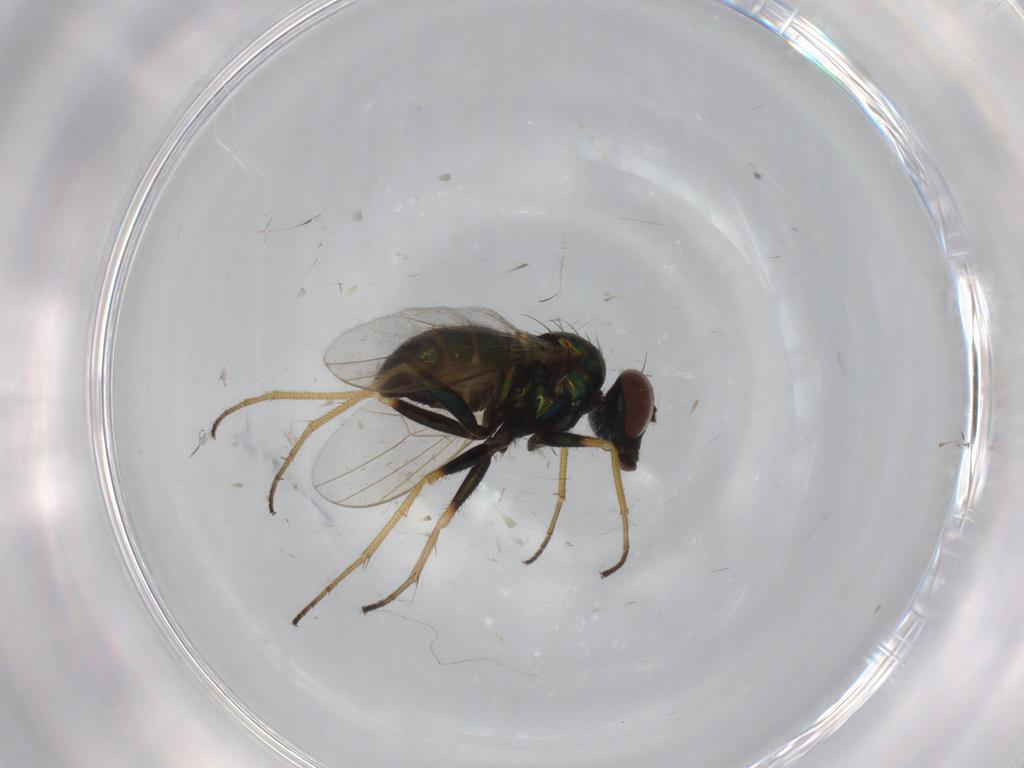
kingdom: Animalia
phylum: Arthropoda
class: Insecta
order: Diptera
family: Dolichopodidae
